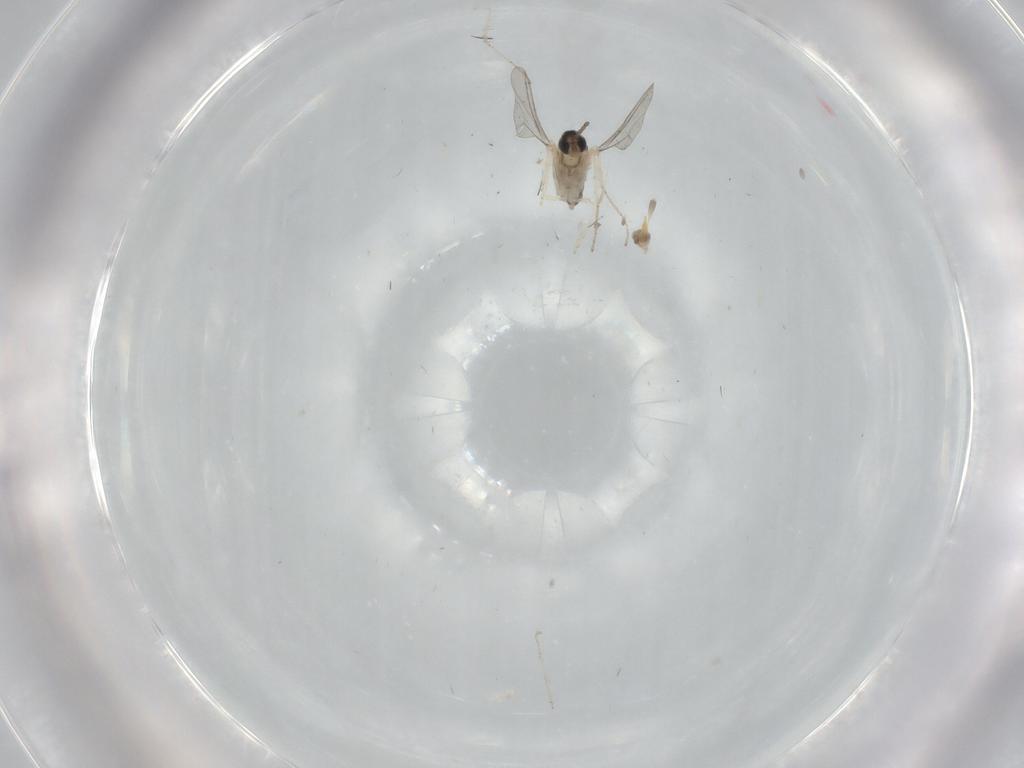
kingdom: Animalia
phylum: Arthropoda
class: Insecta
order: Diptera
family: Cecidomyiidae
